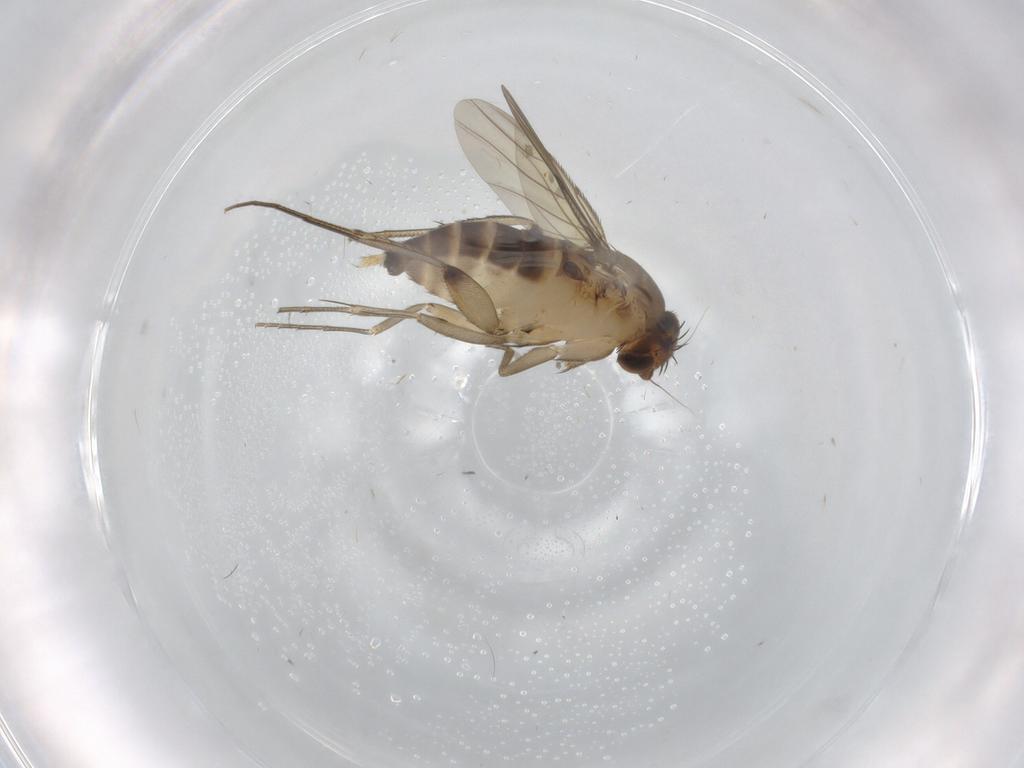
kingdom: Animalia
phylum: Arthropoda
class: Insecta
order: Diptera
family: Phoridae
